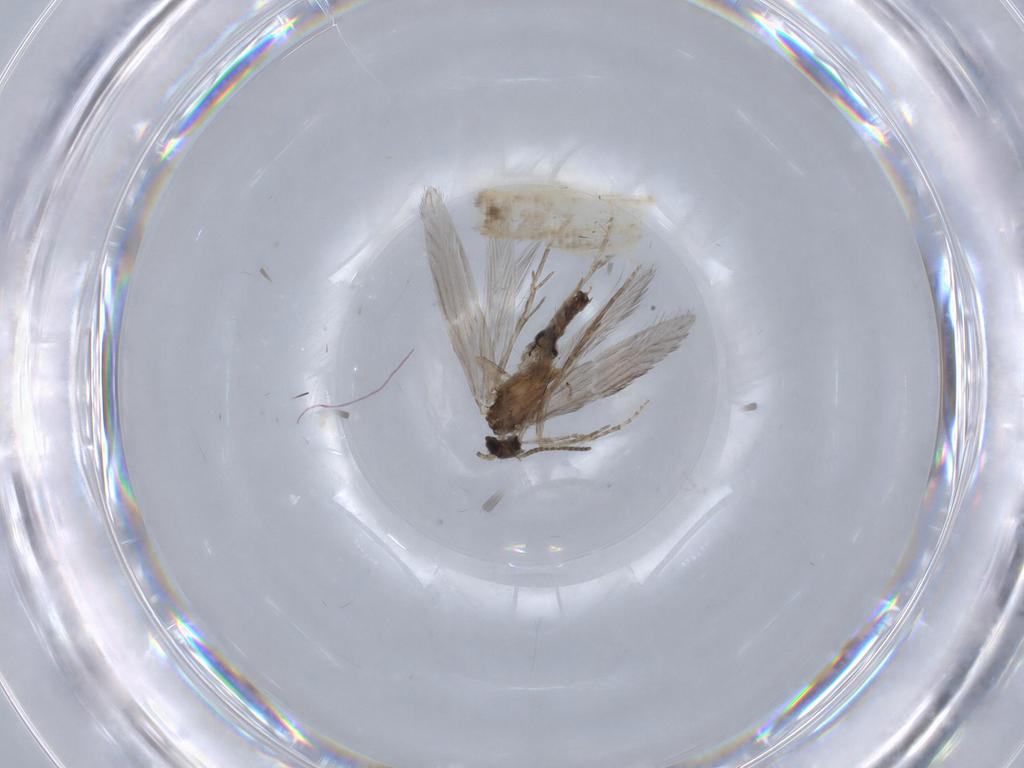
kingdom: Animalia
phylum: Arthropoda
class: Insecta
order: Trichoptera
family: Hydroptilidae
